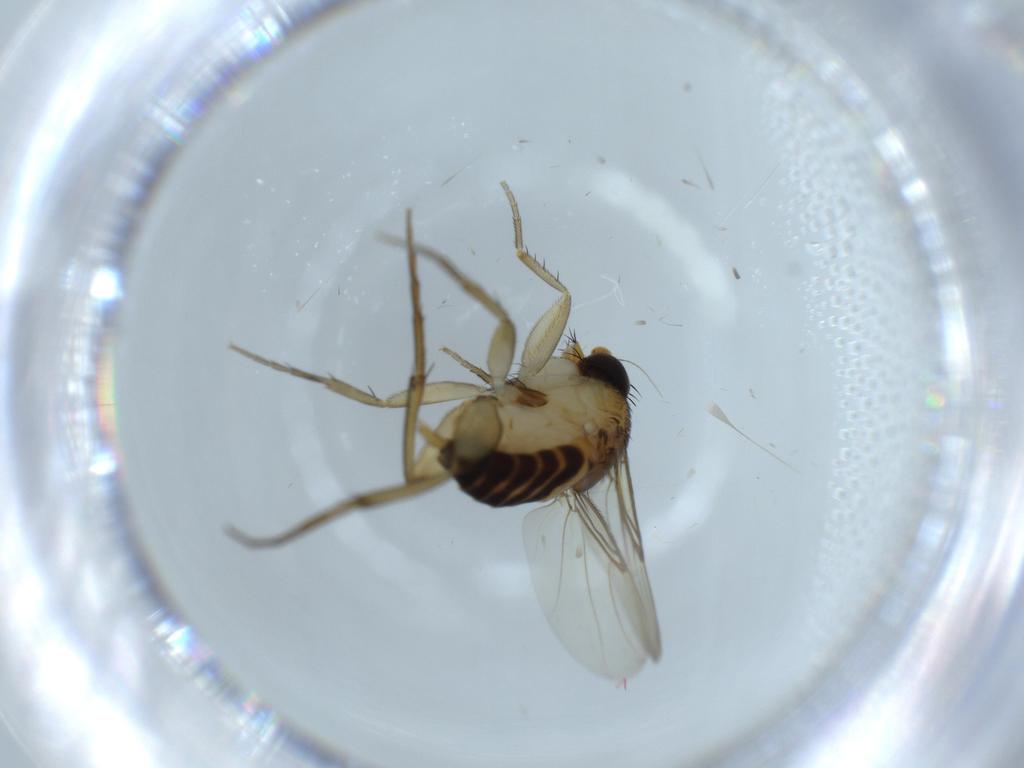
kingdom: Animalia
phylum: Arthropoda
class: Insecta
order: Diptera
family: Phoridae
